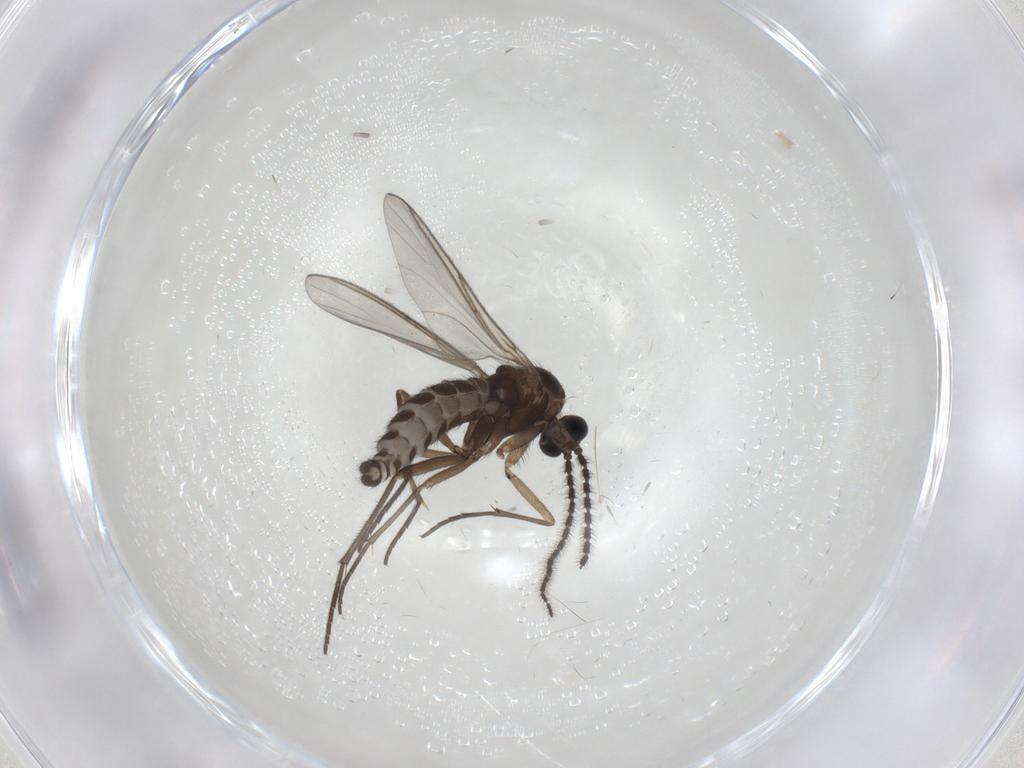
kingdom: Animalia
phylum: Arthropoda
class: Insecta
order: Diptera
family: Sciaridae
